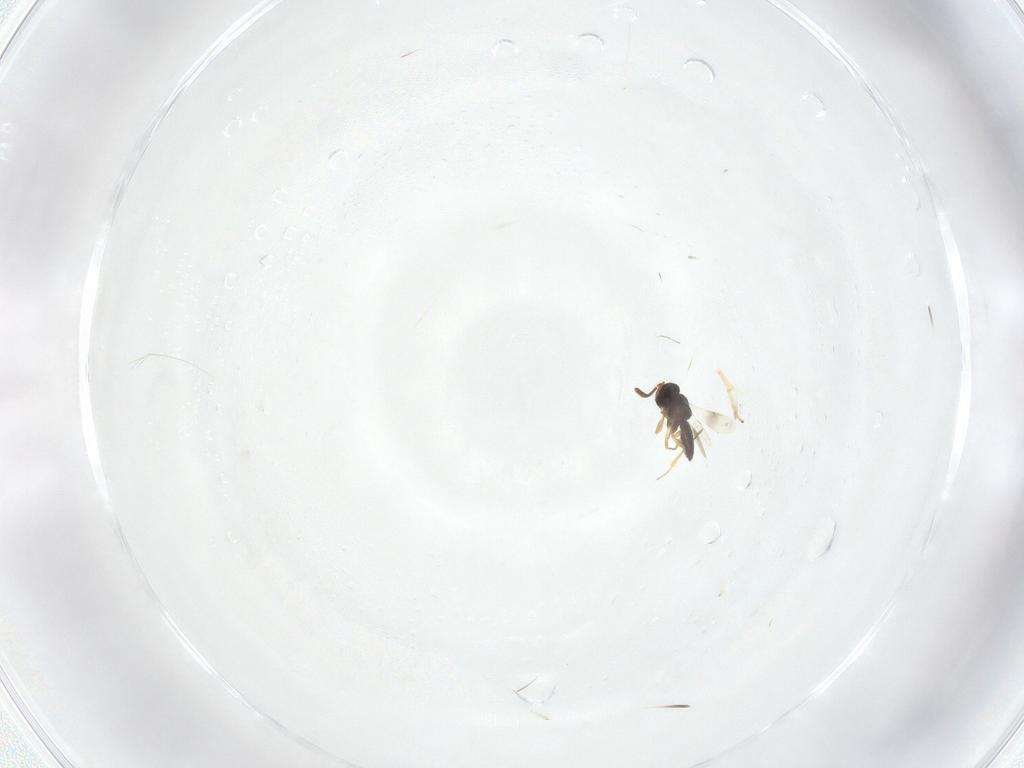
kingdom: Animalia
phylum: Arthropoda
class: Insecta
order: Hymenoptera
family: Scelionidae
